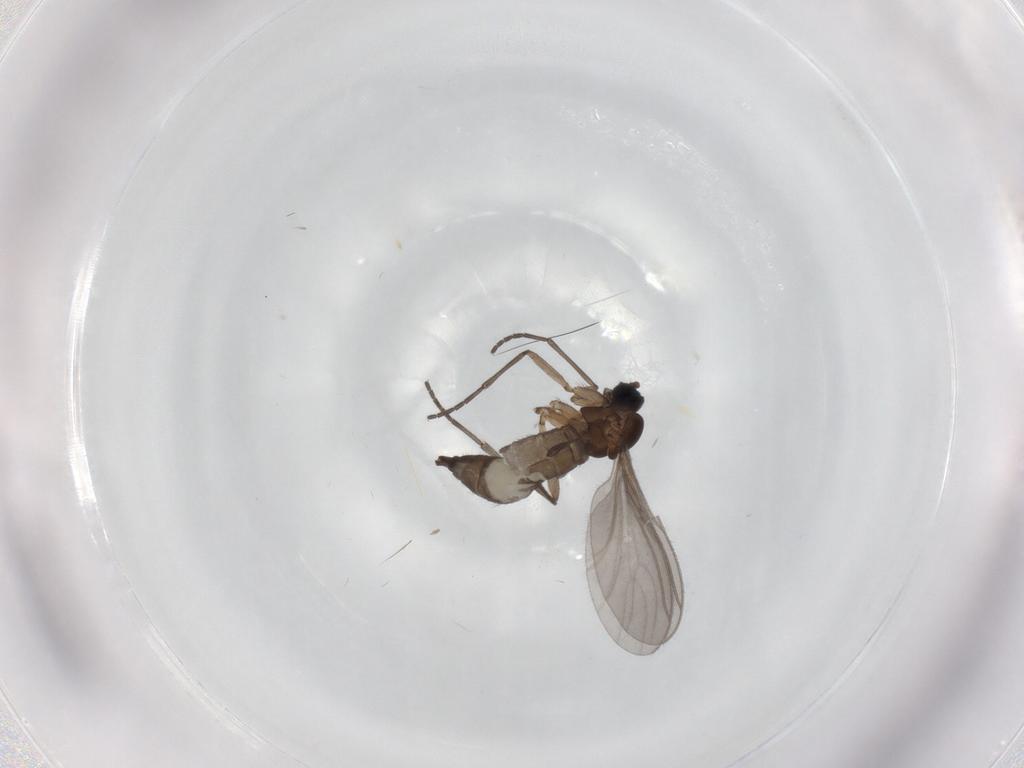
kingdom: Animalia
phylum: Arthropoda
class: Insecta
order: Diptera
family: Sciaridae
